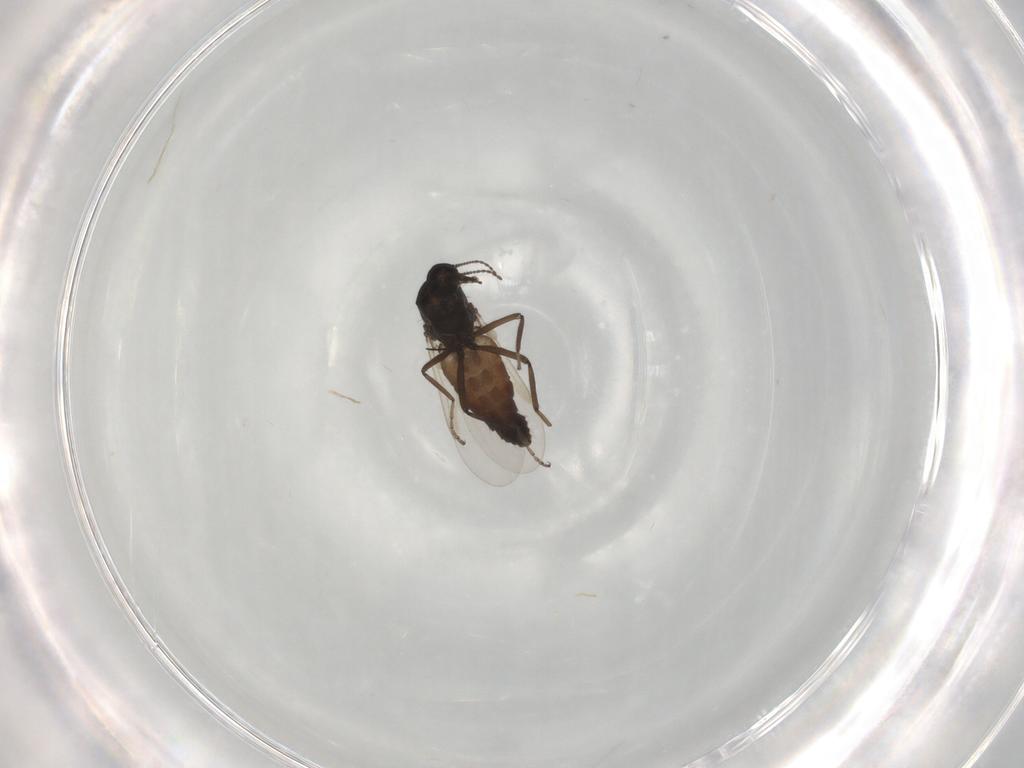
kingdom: Animalia
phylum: Arthropoda
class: Insecta
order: Diptera
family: Ceratopogonidae
